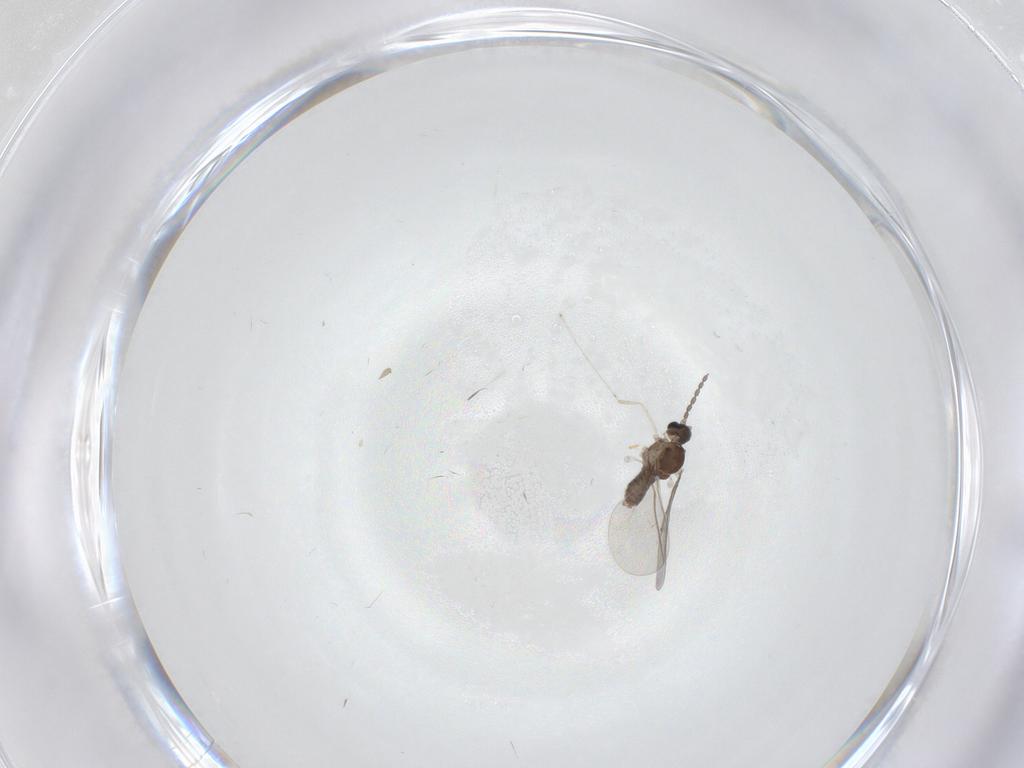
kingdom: Animalia
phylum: Arthropoda
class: Insecta
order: Diptera
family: Cecidomyiidae
